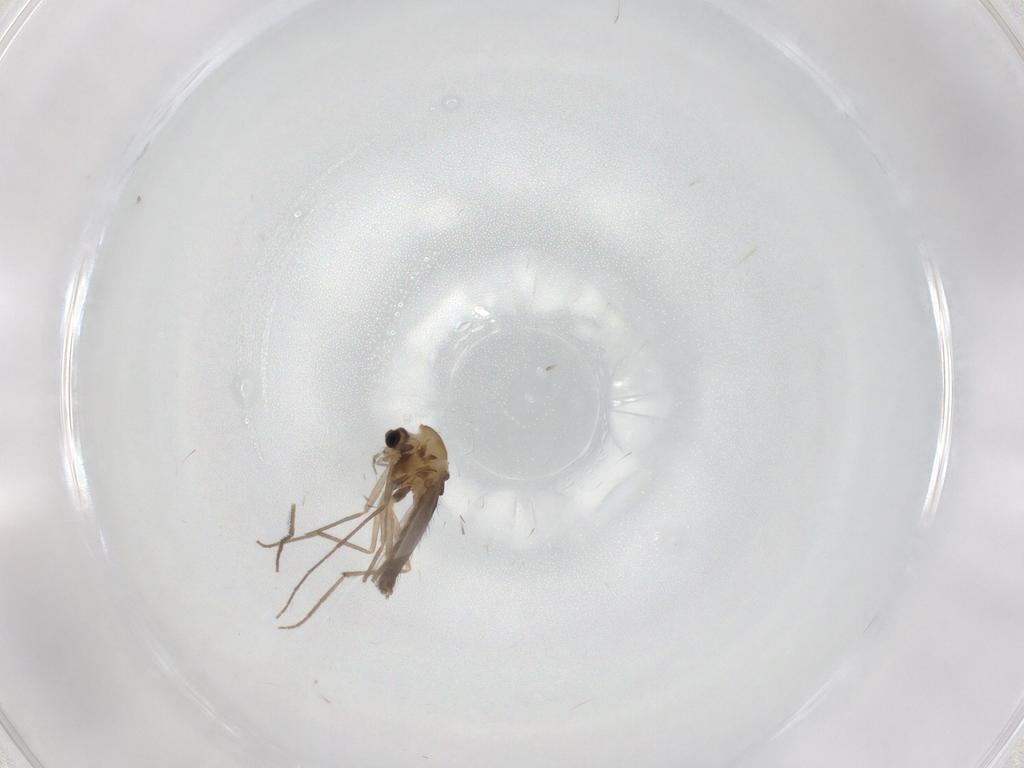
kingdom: Animalia
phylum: Arthropoda
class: Insecta
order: Diptera
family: Chironomidae
